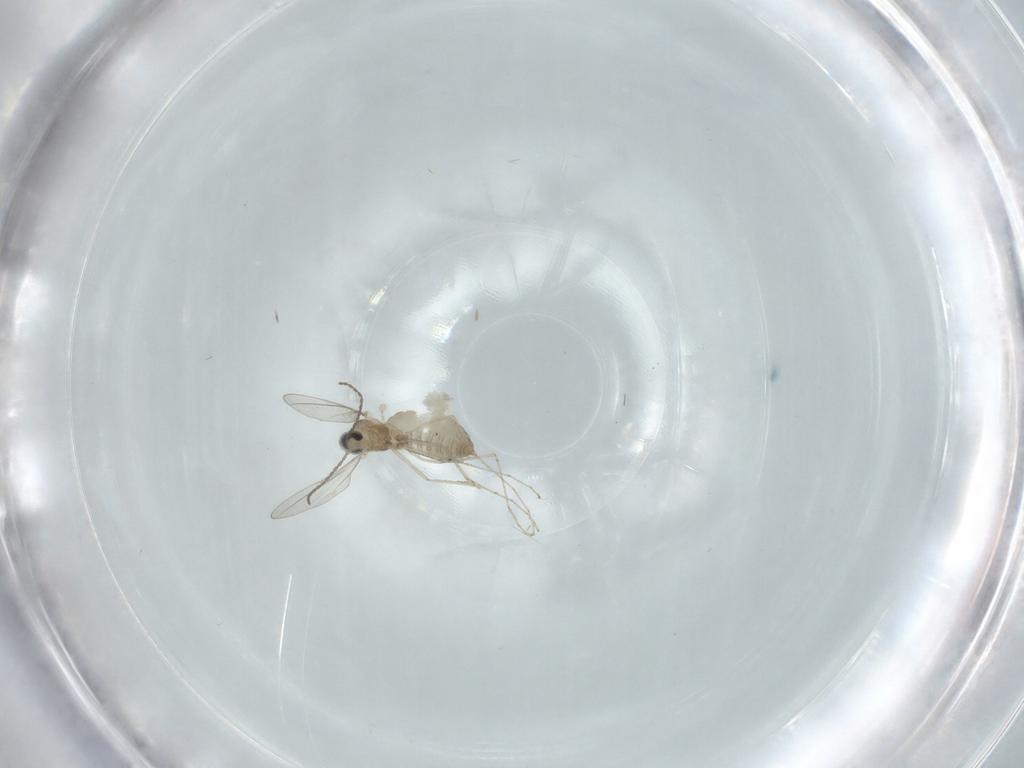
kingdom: Animalia
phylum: Arthropoda
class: Insecta
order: Diptera
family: Cecidomyiidae
